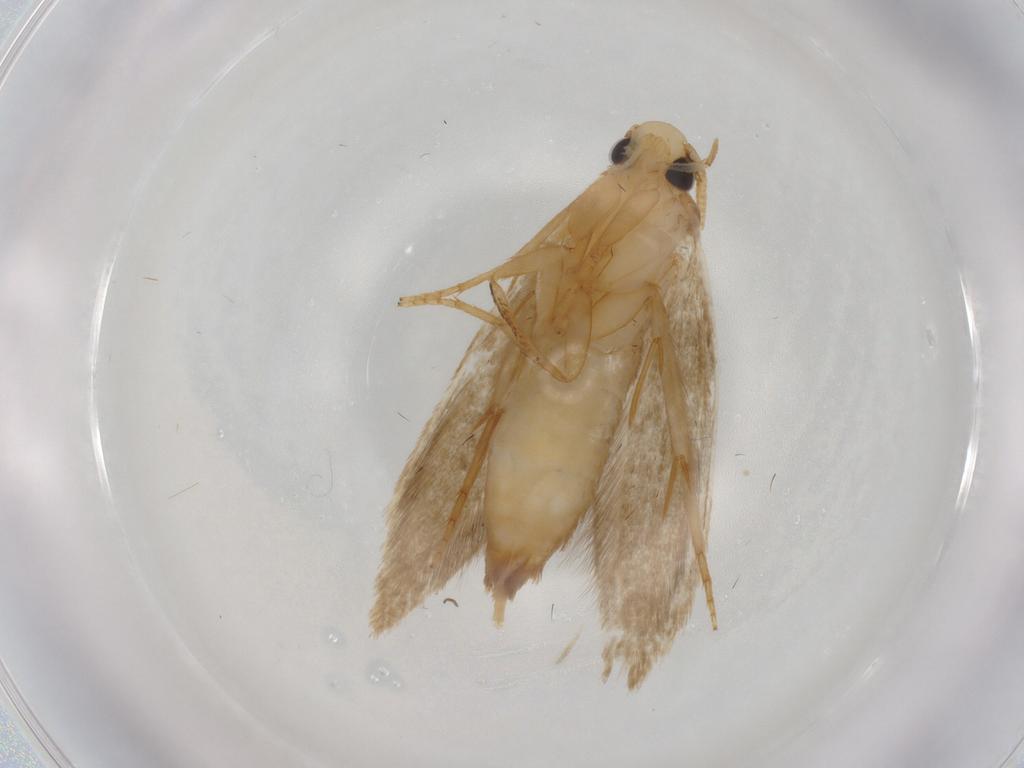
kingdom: Animalia
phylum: Arthropoda
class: Insecta
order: Lepidoptera
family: Tineidae
